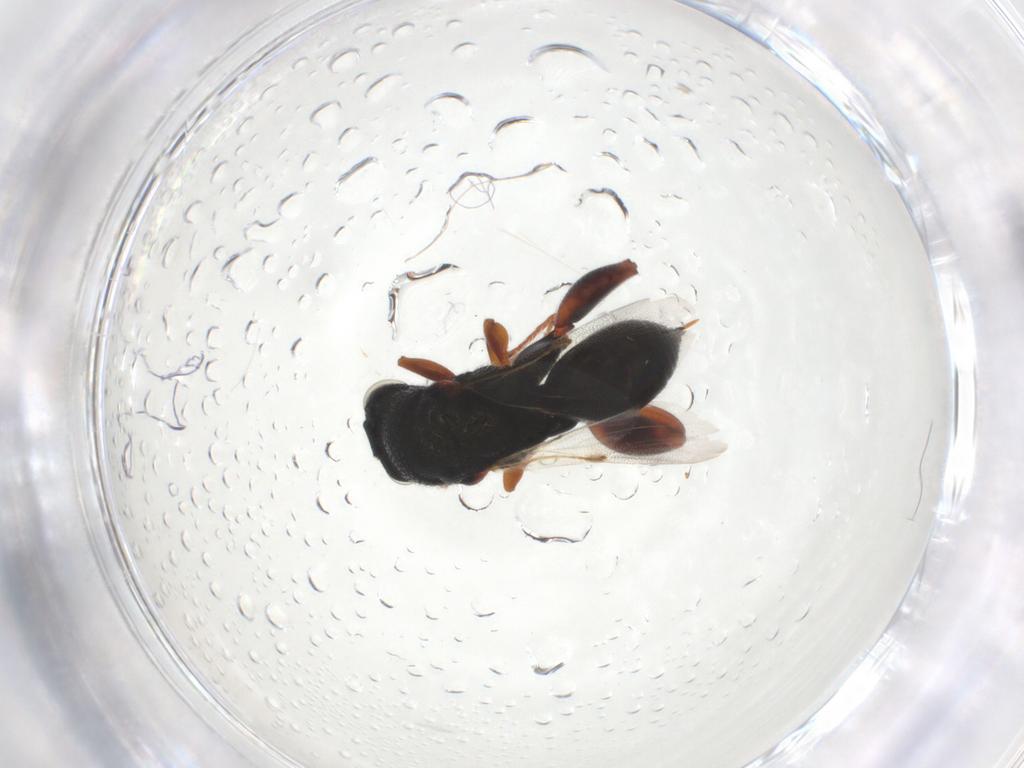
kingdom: Animalia
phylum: Arthropoda
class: Insecta
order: Hymenoptera
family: Chalcididae
